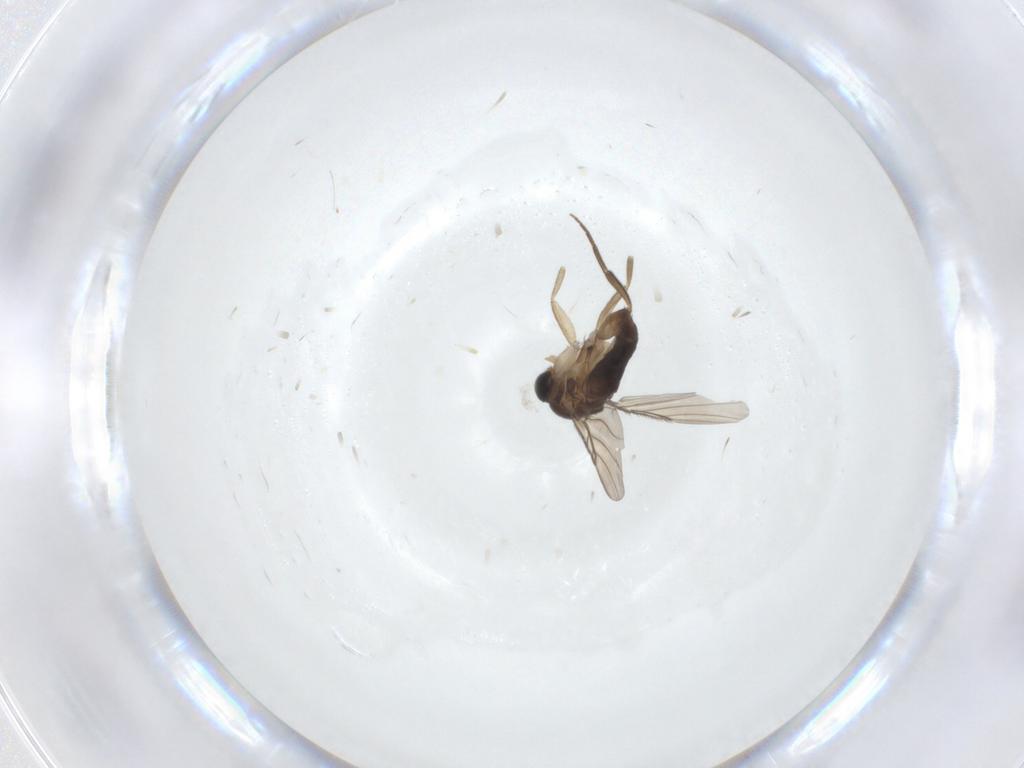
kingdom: Animalia
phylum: Arthropoda
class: Insecta
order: Diptera
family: Phoridae
